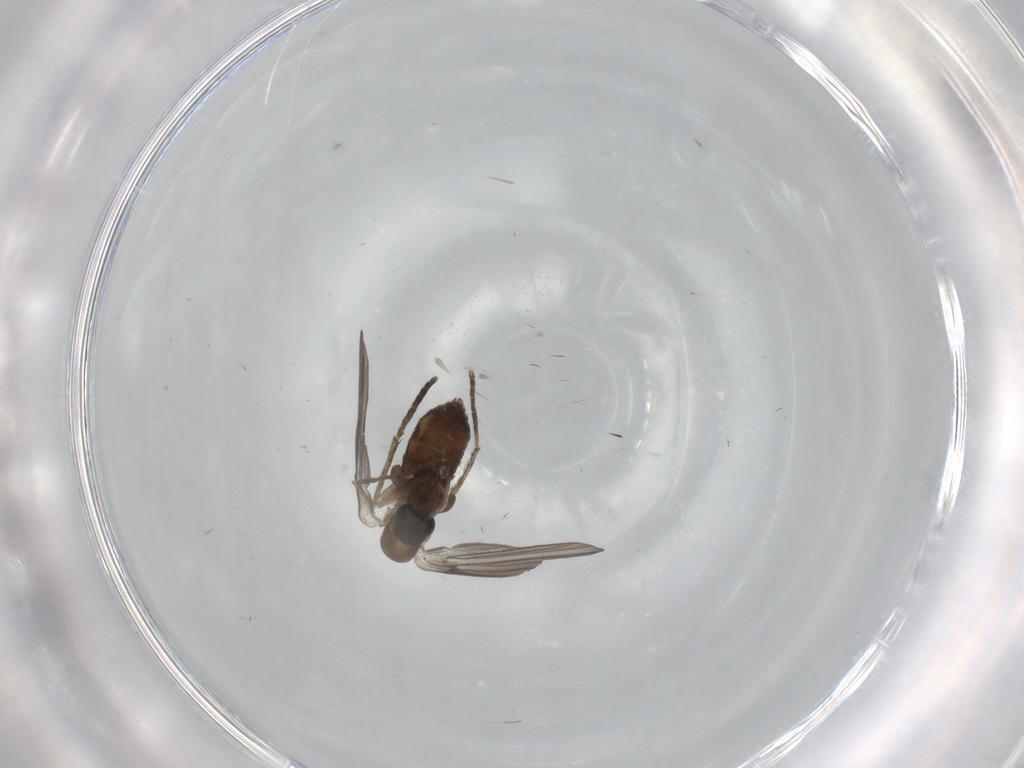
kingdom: Animalia
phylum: Arthropoda
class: Insecta
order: Diptera
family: Psychodidae
